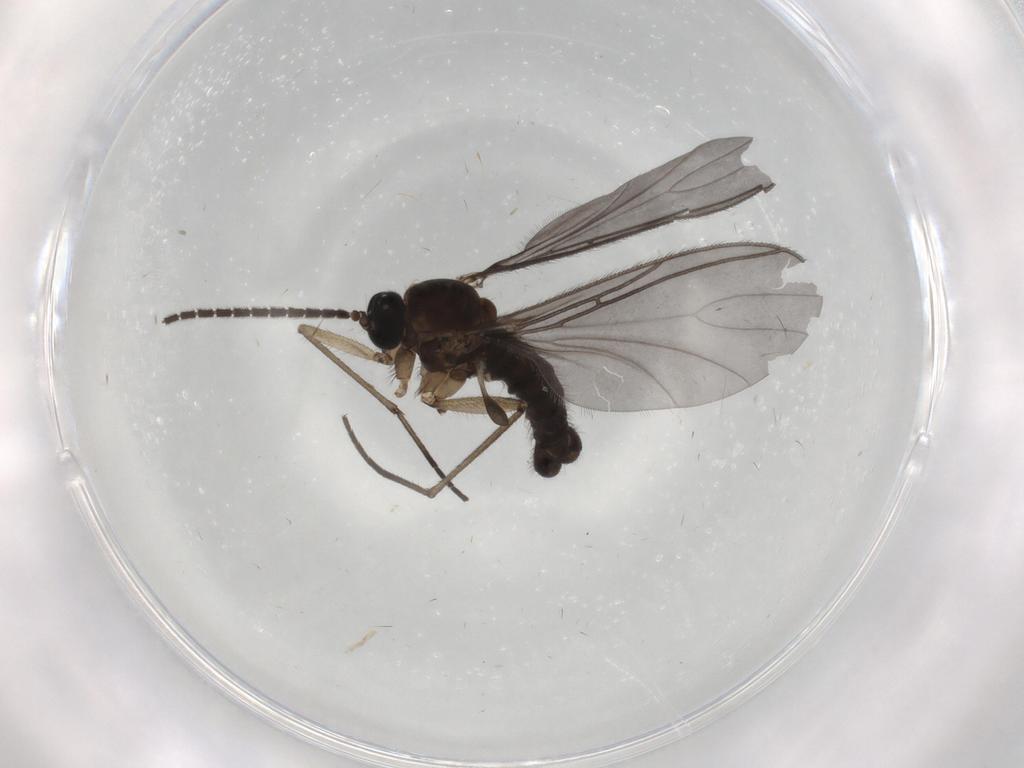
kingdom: Animalia
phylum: Arthropoda
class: Insecta
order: Diptera
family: Sciaridae
